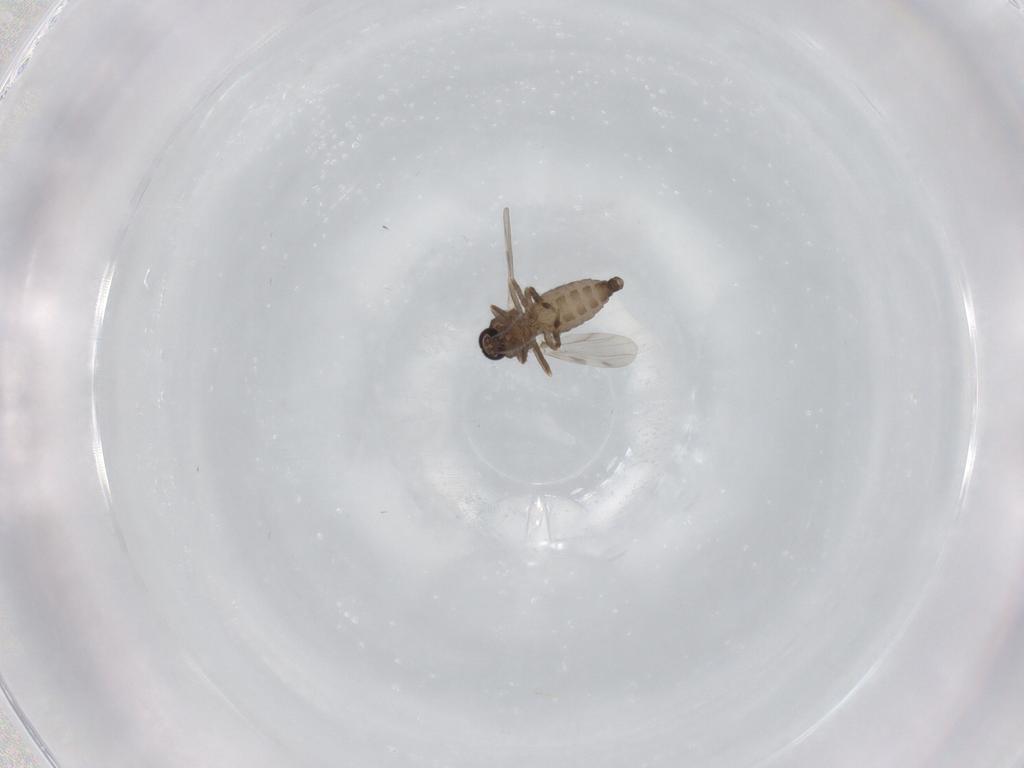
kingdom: Animalia
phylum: Arthropoda
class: Insecta
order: Diptera
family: Ceratopogonidae
